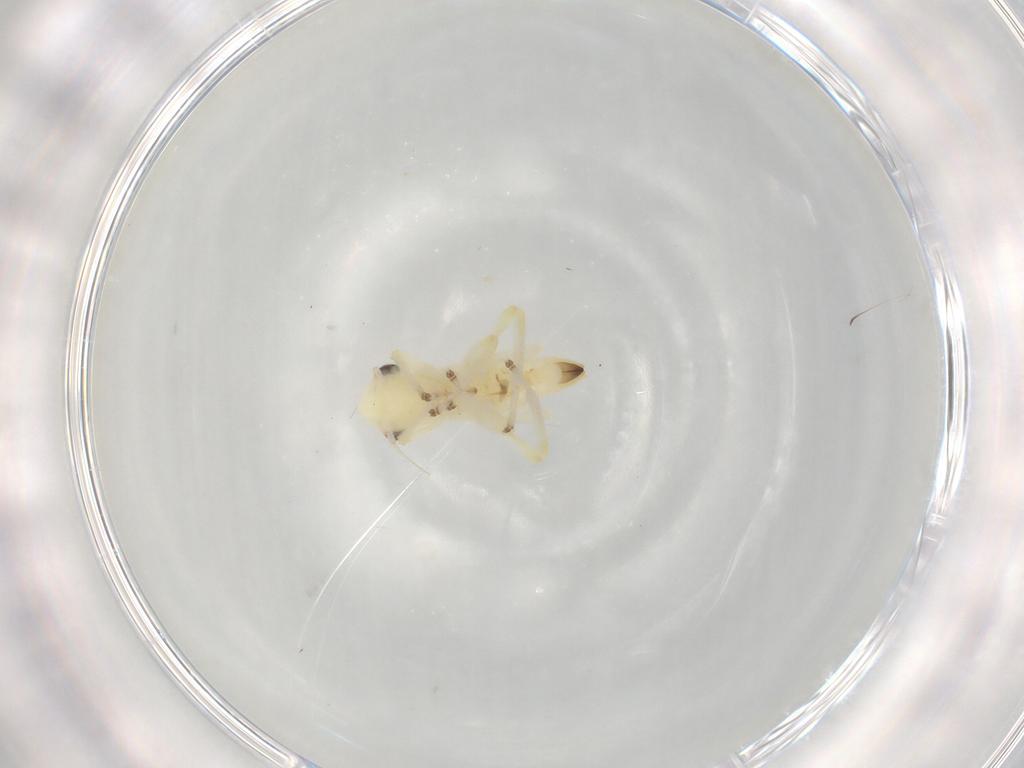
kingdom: Animalia
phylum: Arthropoda
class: Insecta
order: Hemiptera
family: Cicadellidae
